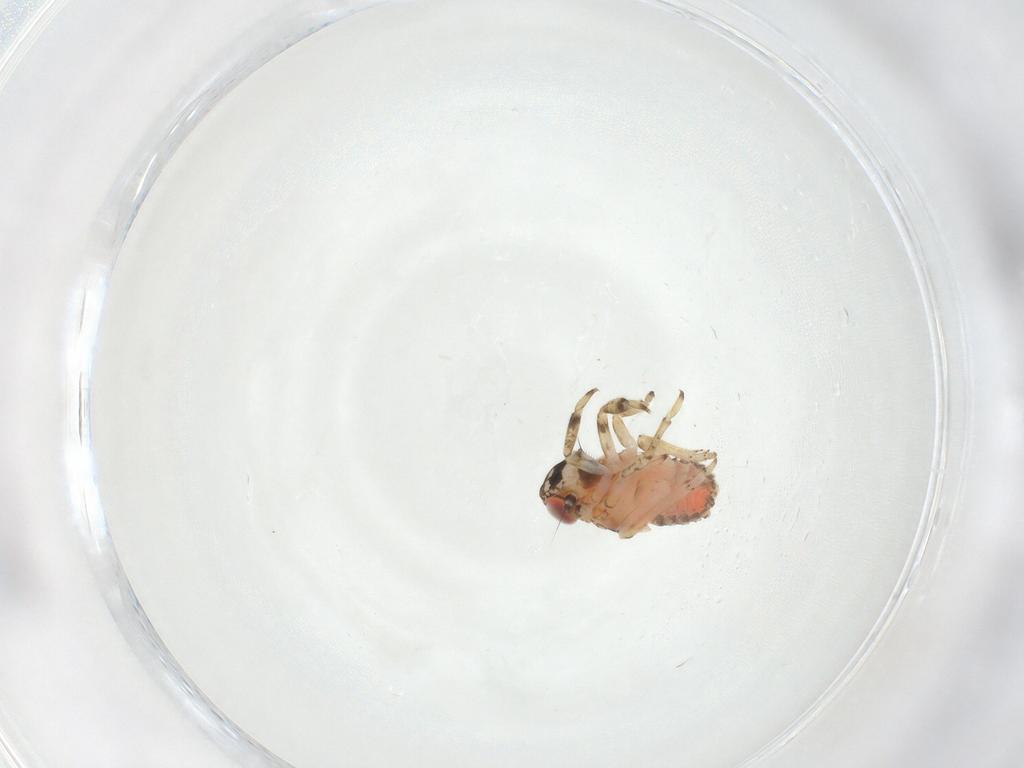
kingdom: Animalia
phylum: Arthropoda
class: Insecta
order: Hemiptera
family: Issidae
